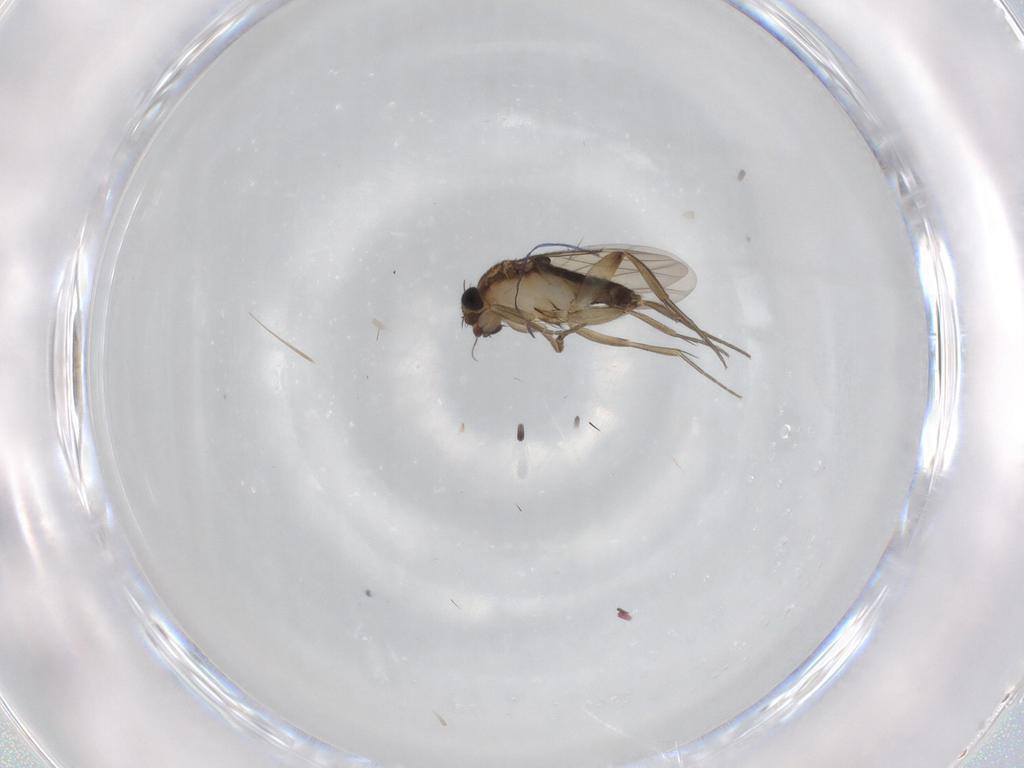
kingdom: Animalia
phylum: Arthropoda
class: Insecta
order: Diptera
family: Phoridae
